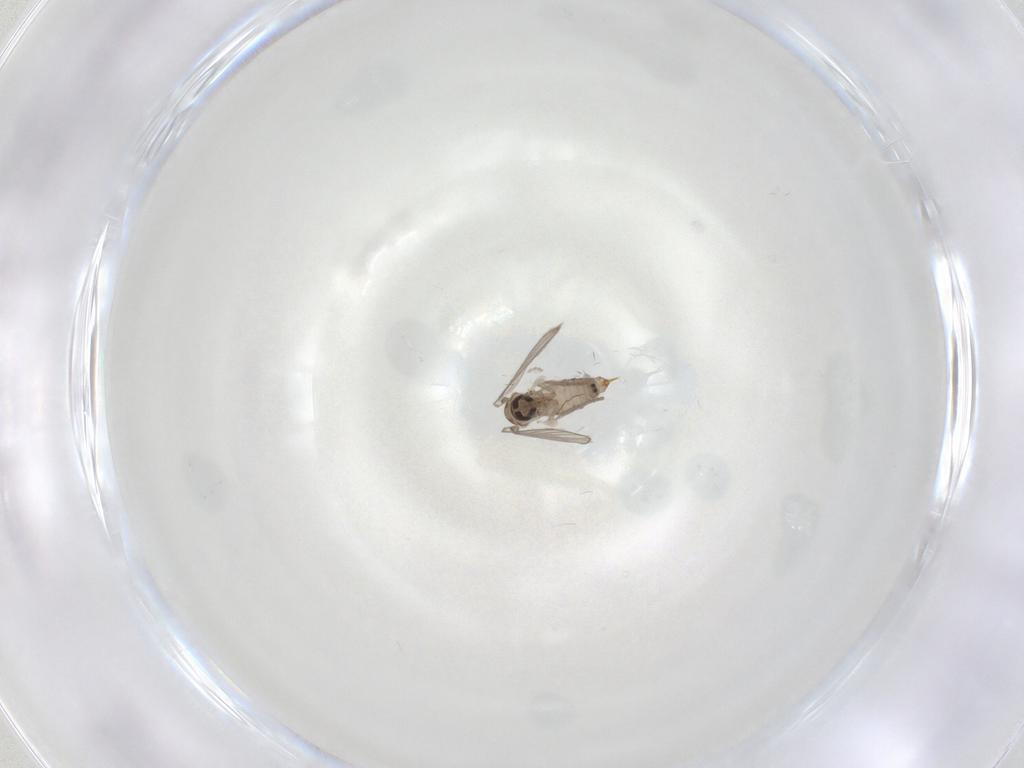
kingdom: Animalia
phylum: Arthropoda
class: Insecta
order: Diptera
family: Psychodidae
